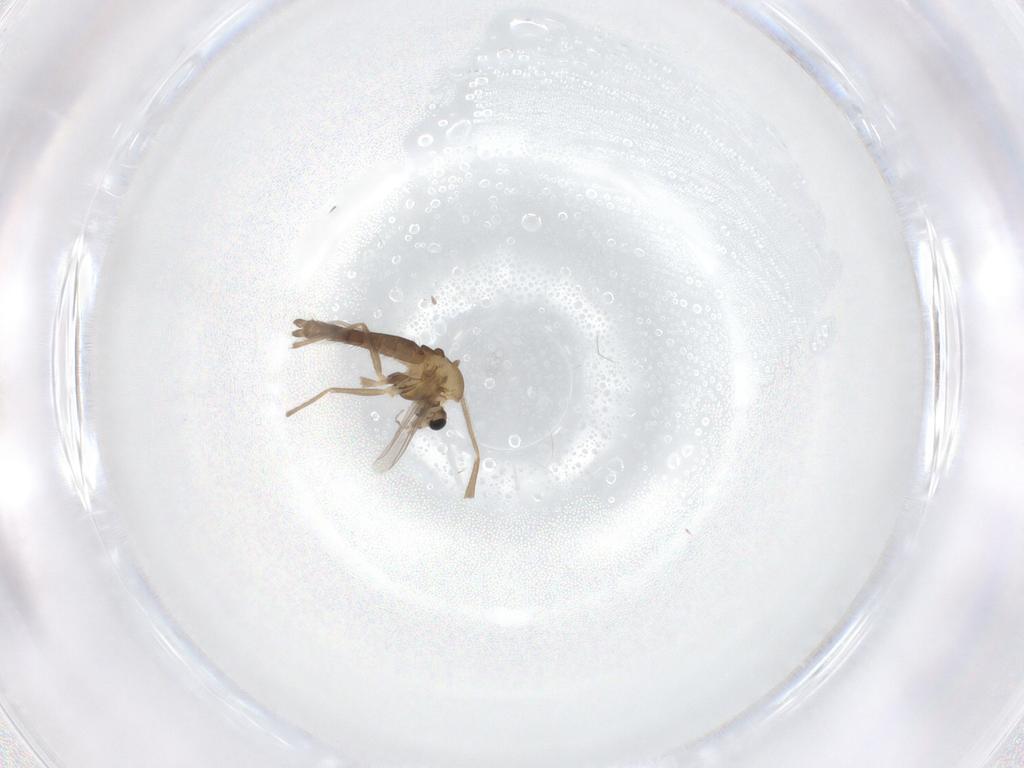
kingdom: Animalia
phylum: Arthropoda
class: Insecta
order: Diptera
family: Chironomidae
